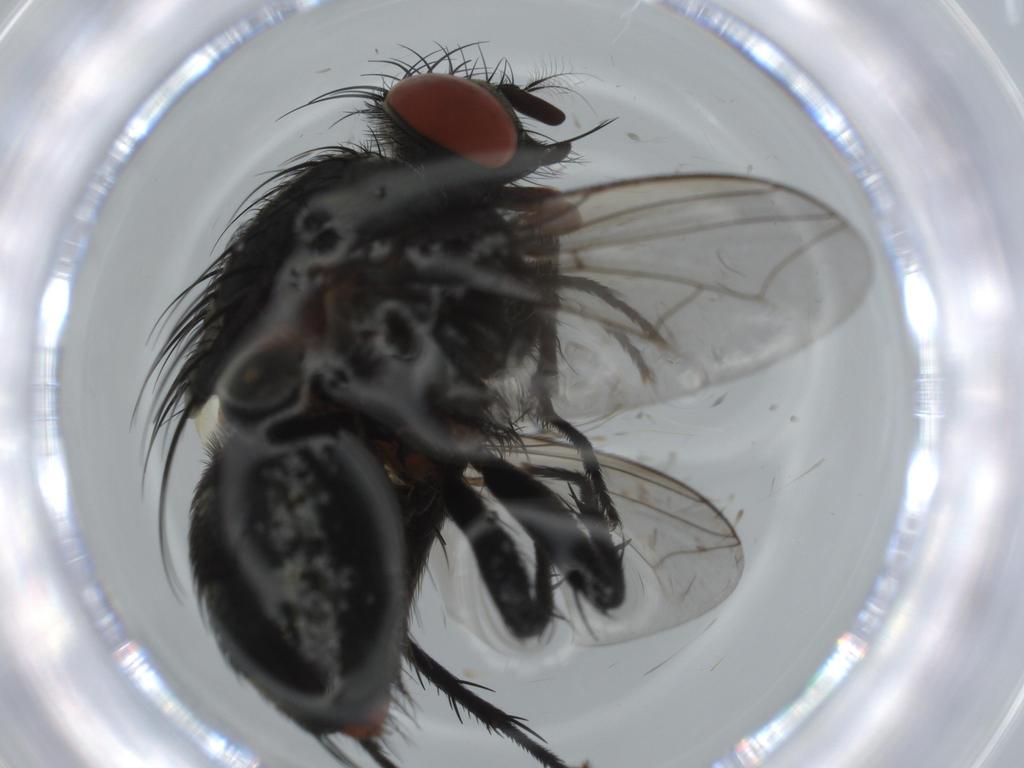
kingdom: Animalia
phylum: Arthropoda
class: Insecta
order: Diptera
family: Ceratopogonidae
